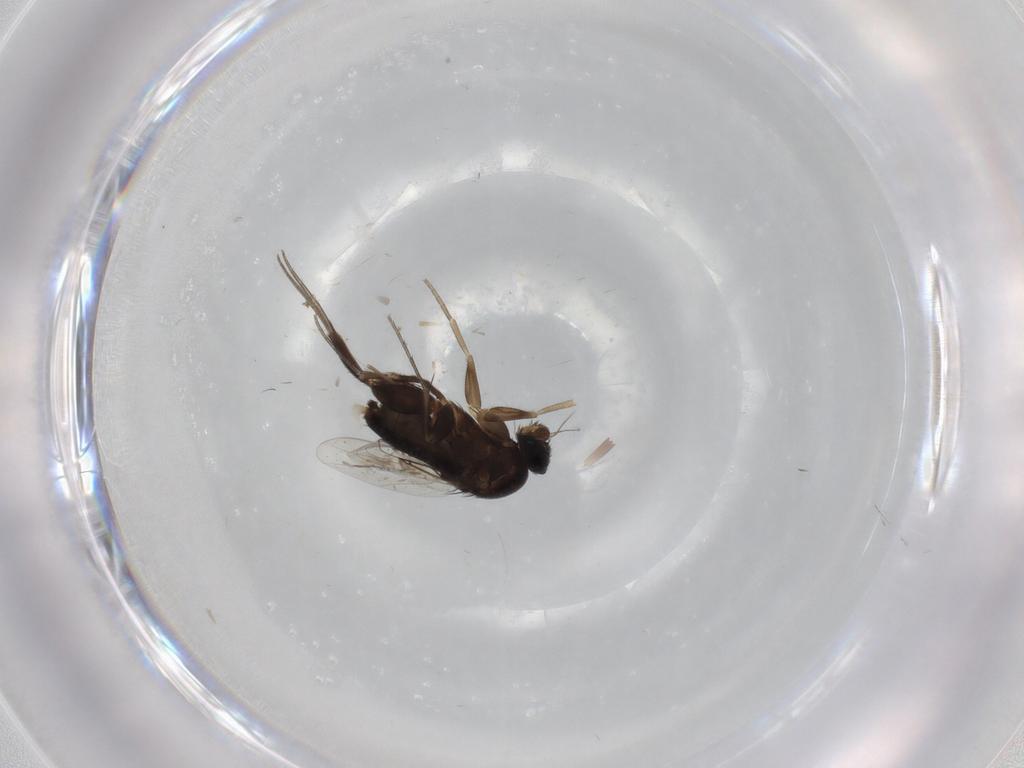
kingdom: Animalia
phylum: Arthropoda
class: Insecta
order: Diptera
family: Phoridae
